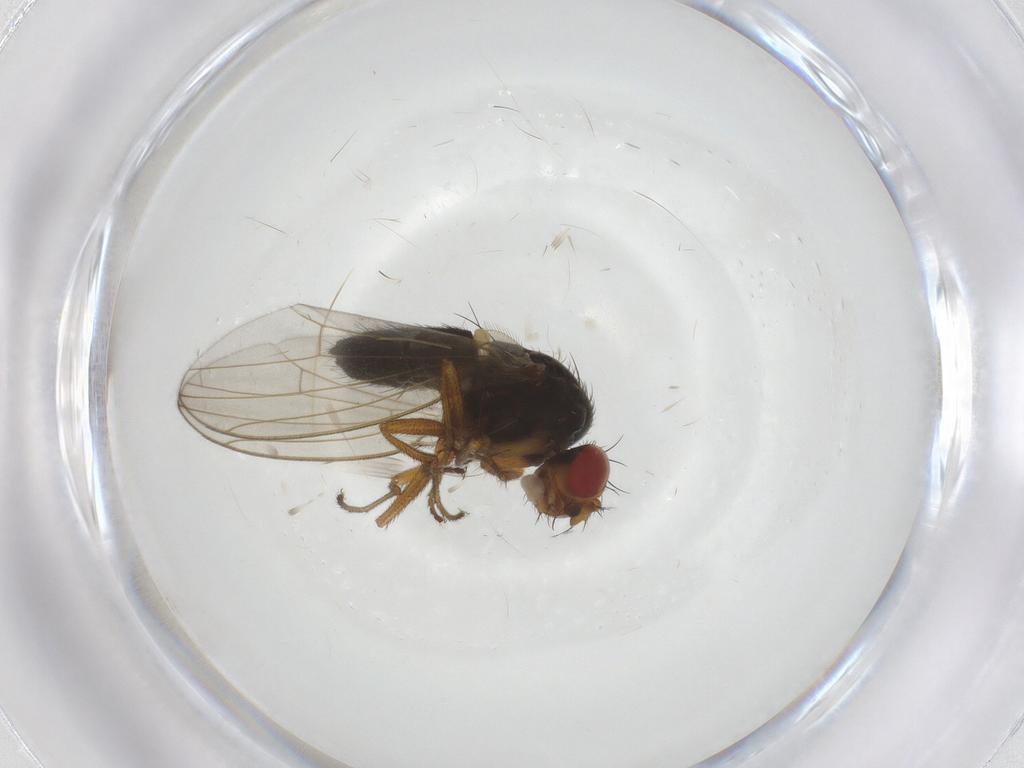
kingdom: Animalia
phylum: Arthropoda
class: Insecta
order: Diptera
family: Drosophilidae
